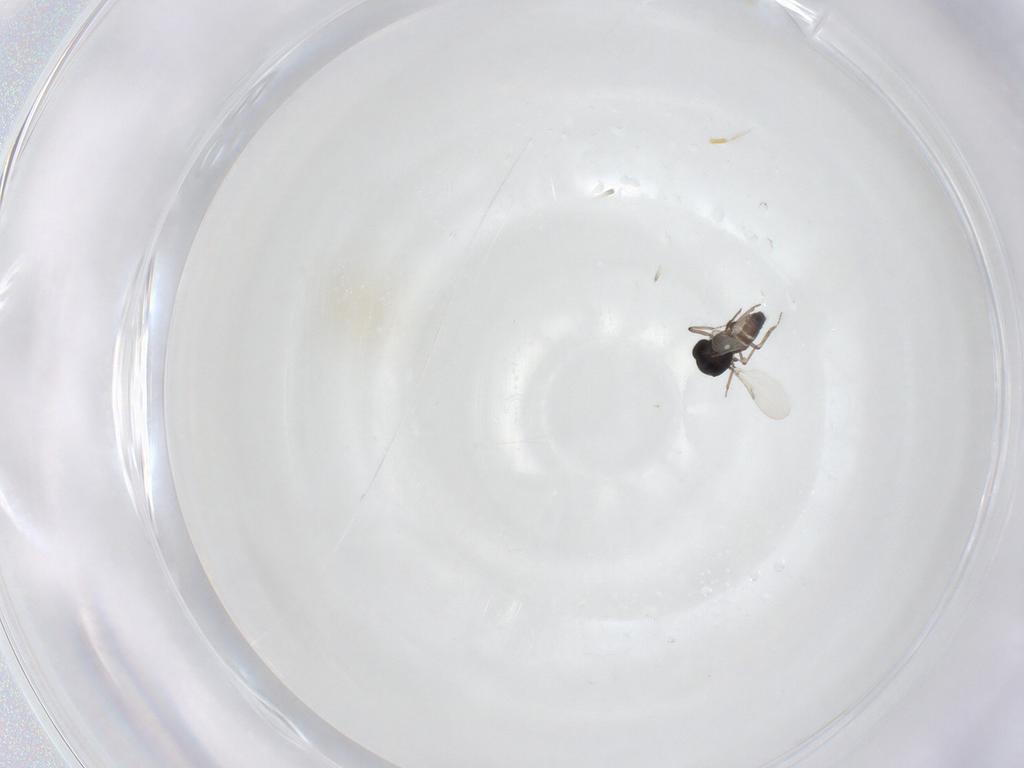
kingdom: Animalia
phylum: Arthropoda
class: Insecta
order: Diptera
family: Ceratopogonidae
